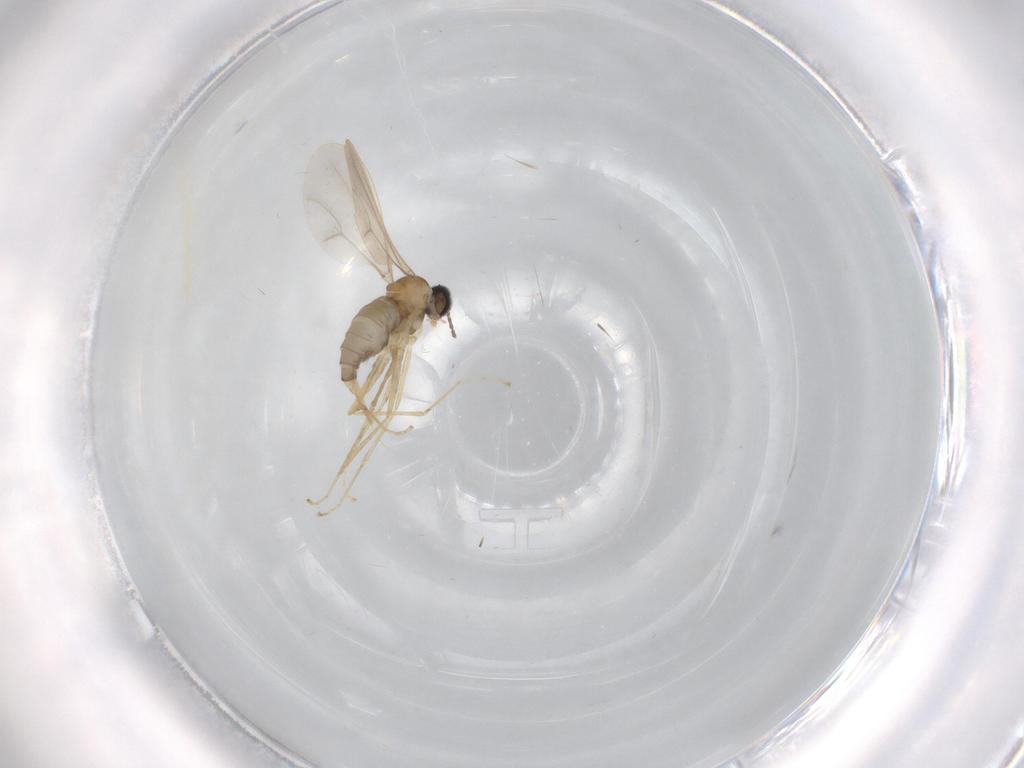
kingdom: Animalia
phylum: Arthropoda
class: Insecta
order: Diptera
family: Cecidomyiidae
